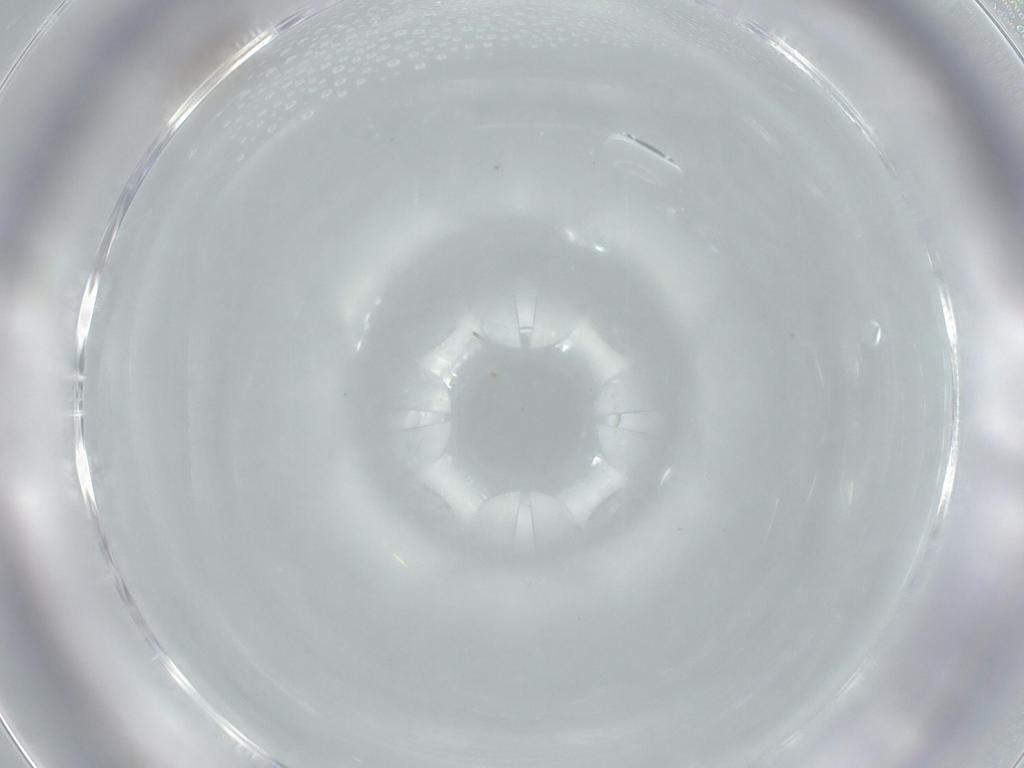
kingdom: Animalia
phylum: Arthropoda
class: Insecta
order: Diptera
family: Ceratopogonidae
